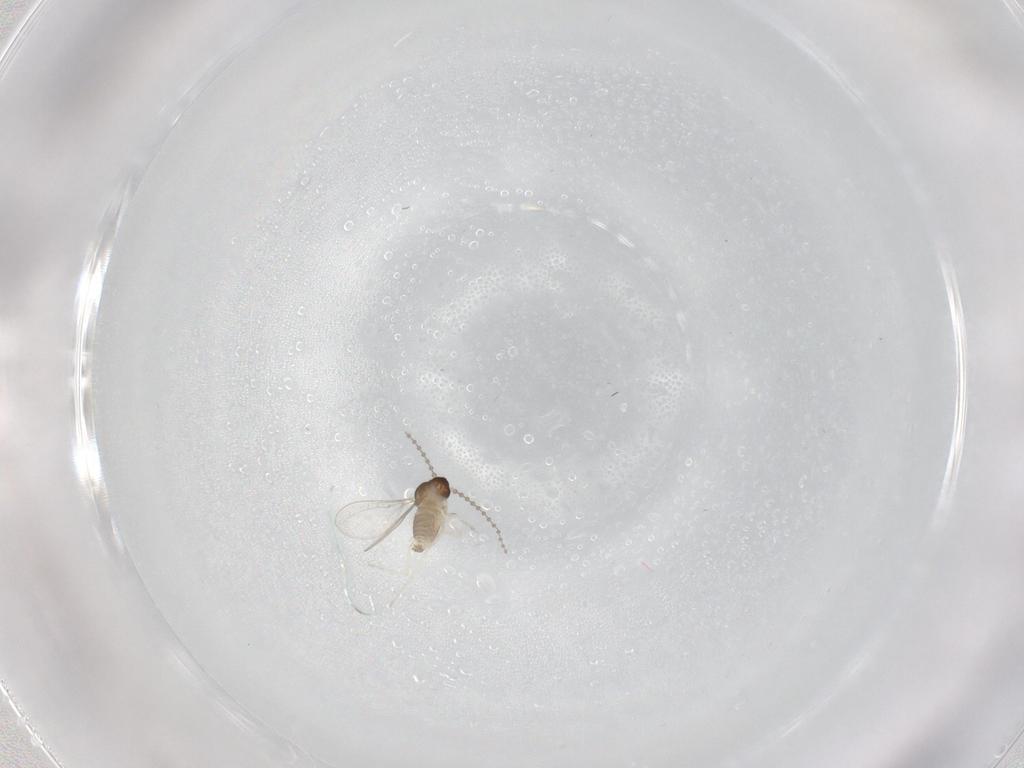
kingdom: Animalia
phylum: Arthropoda
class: Insecta
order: Diptera
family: Cecidomyiidae
